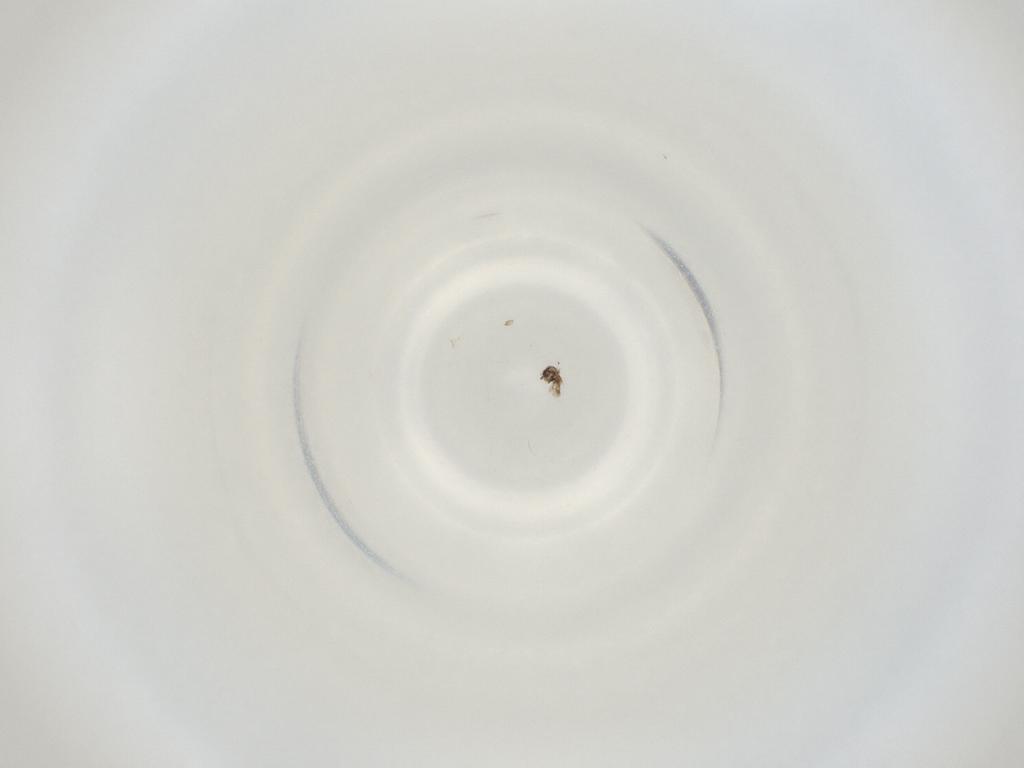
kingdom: Animalia
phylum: Arthropoda
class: Insecta
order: Diptera
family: Cecidomyiidae
